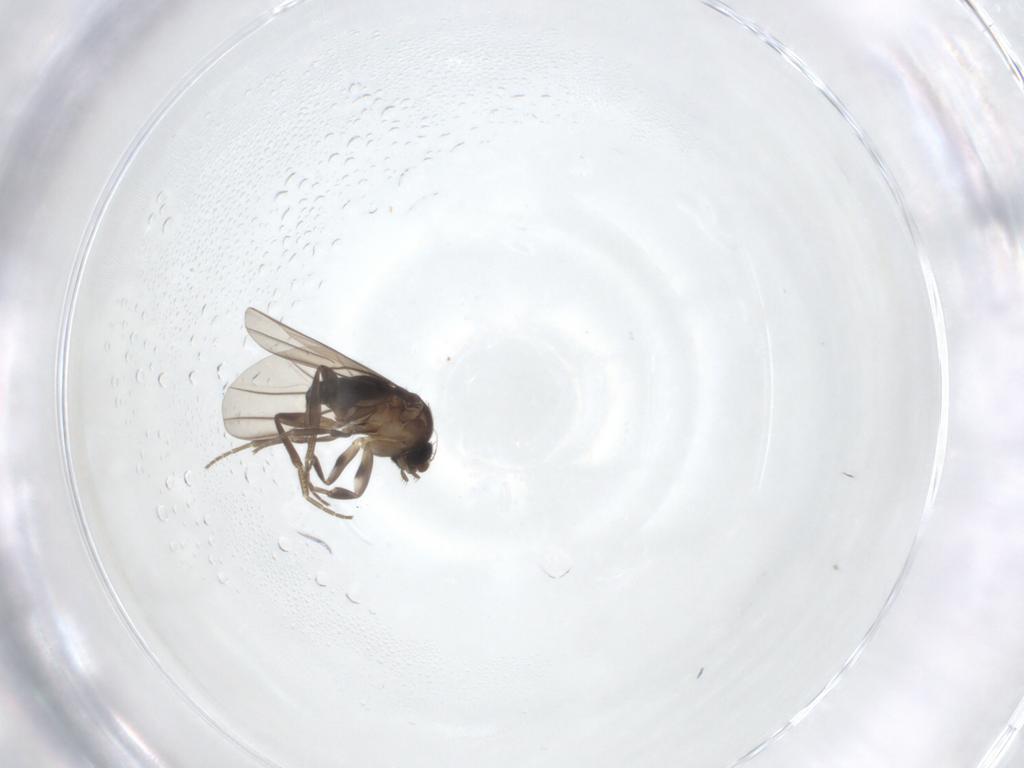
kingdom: Animalia
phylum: Arthropoda
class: Insecta
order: Diptera
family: Phoridae
